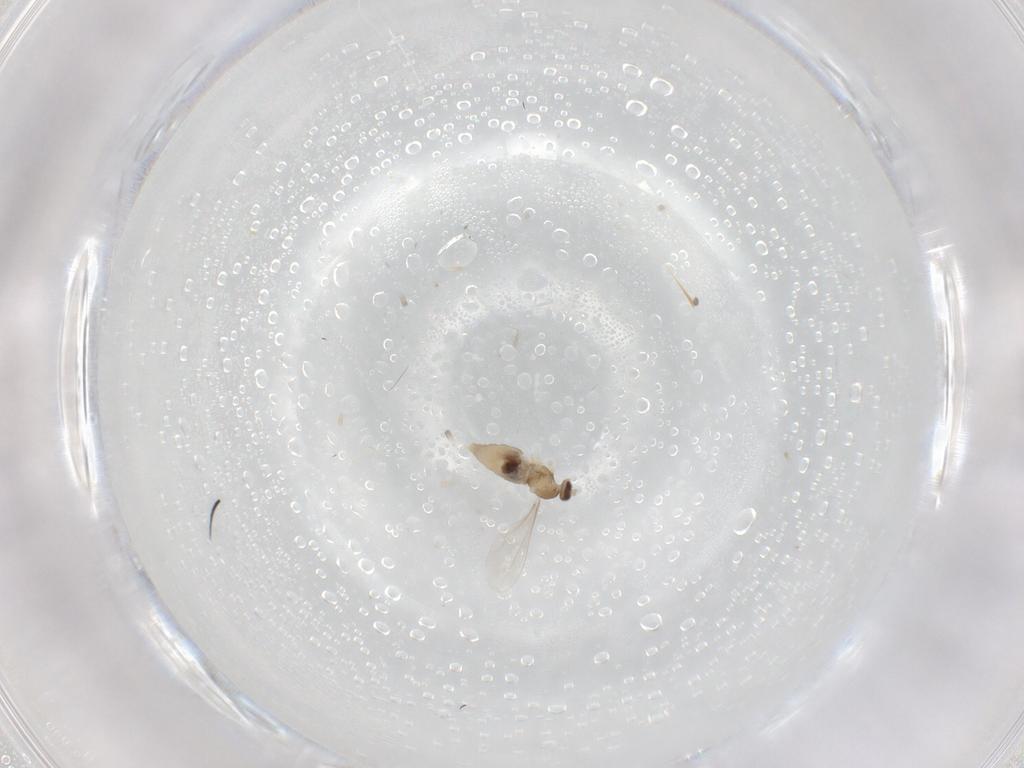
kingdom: Animalia
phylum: Arthropoda
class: Insecta
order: Diptera
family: Cecidomyiidae
